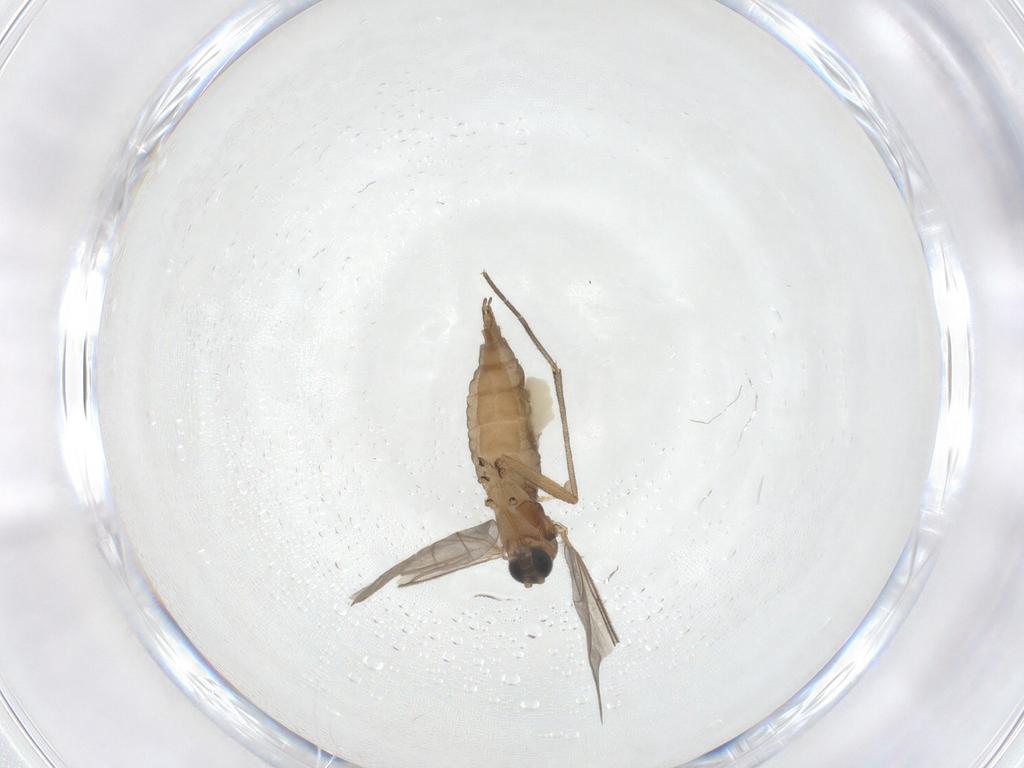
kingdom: Animalia
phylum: Arthropoda
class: Insecta
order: Diptera
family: Sciaridae
